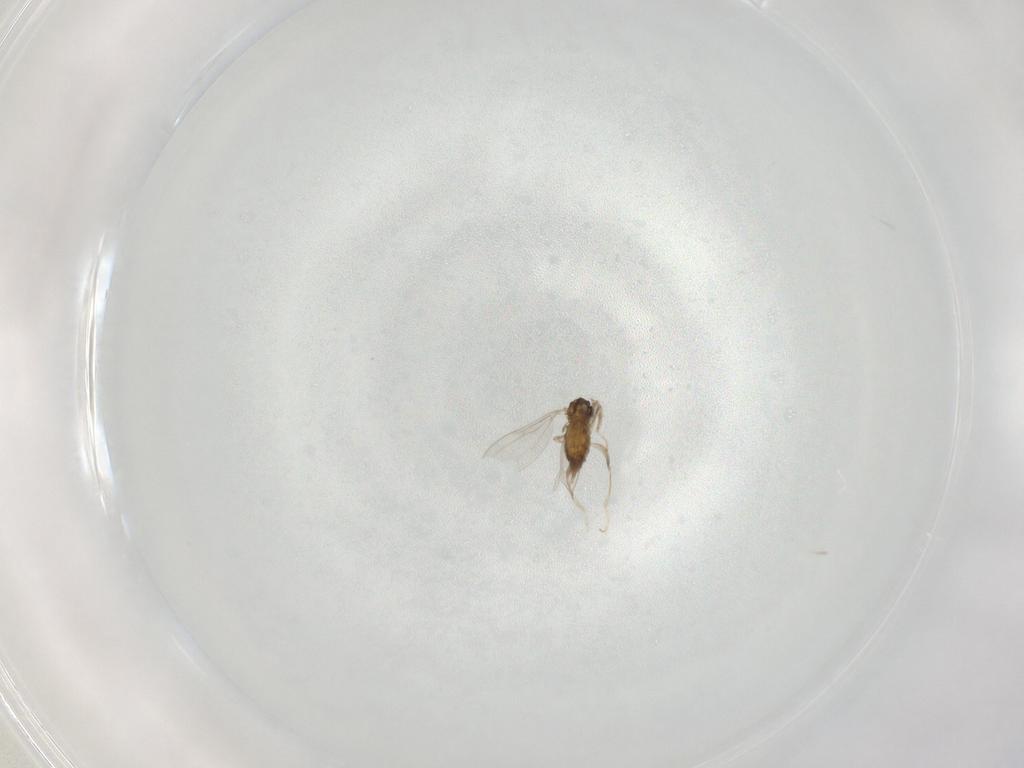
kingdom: Animalia
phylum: Arthropoda
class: Insecta
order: Diptera
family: Cecidomyiidae
